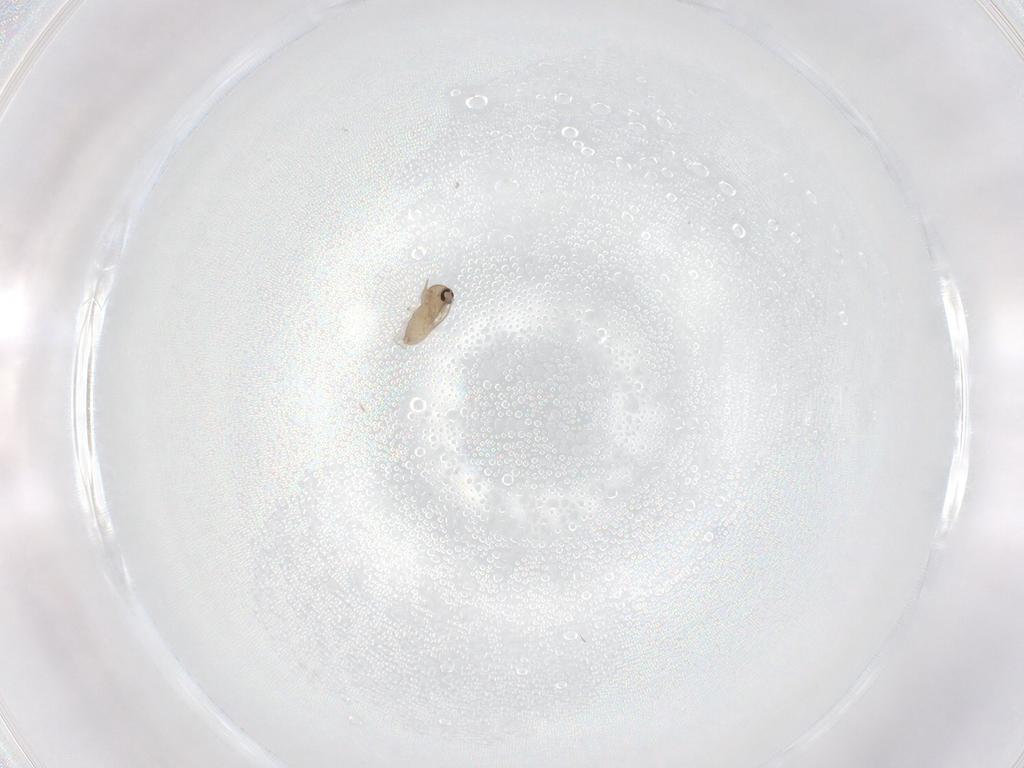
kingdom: Animalia
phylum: Arthropoda
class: Insecta
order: Diptera
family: Ceratopogonidae
